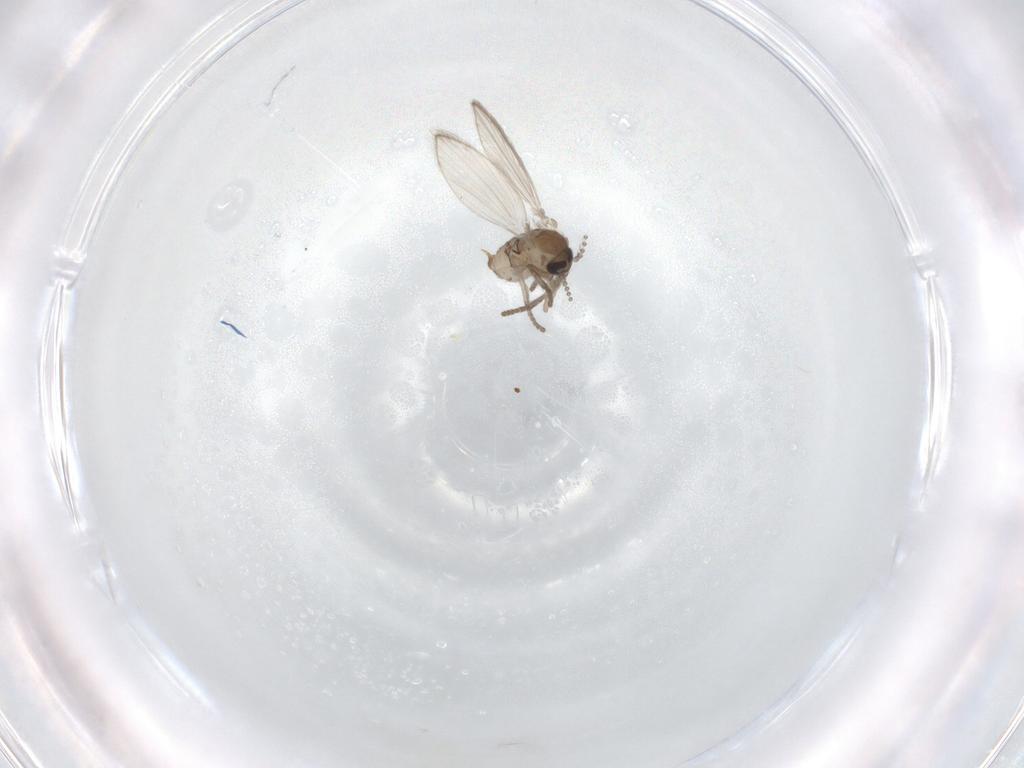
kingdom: Animalia
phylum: Arthropoda
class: Insecta
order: Diptera
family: Psychodidae
